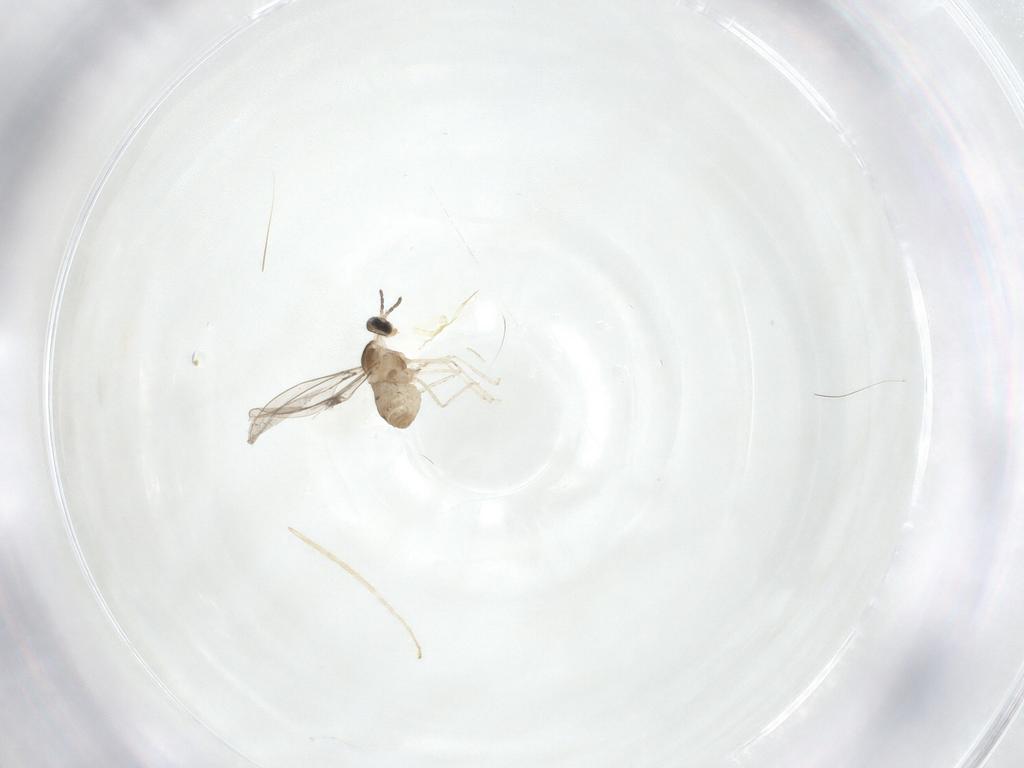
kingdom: Animalia
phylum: Arthropoda
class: Insecta
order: Diptera
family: Cecidomyiidae
